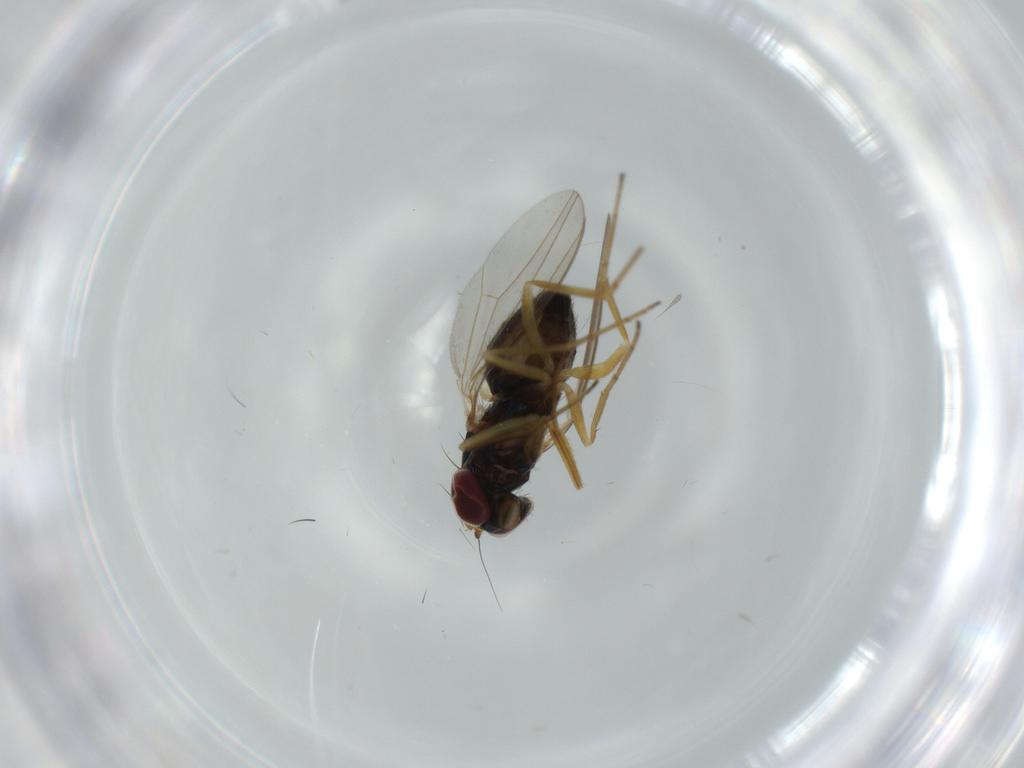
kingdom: Animalia
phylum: Arthropoda
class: Insecta
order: Diptera
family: Dolichopodidae
